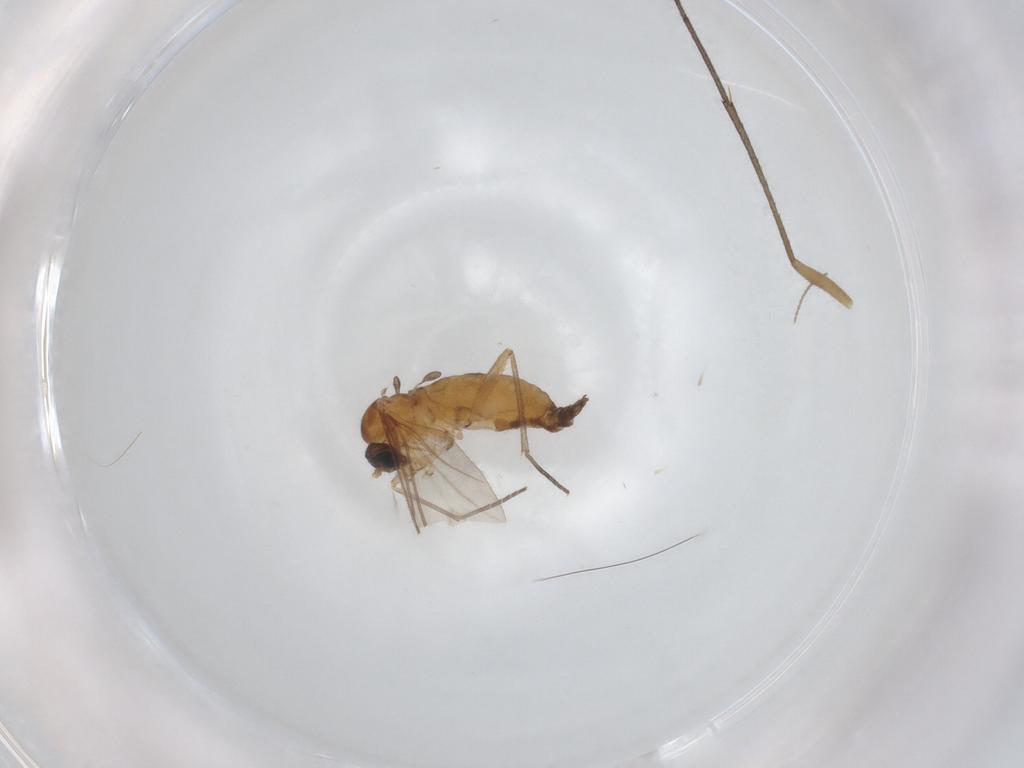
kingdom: Animalia
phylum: Arthropoda
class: Insecta
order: Diptera
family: Sciaridae
